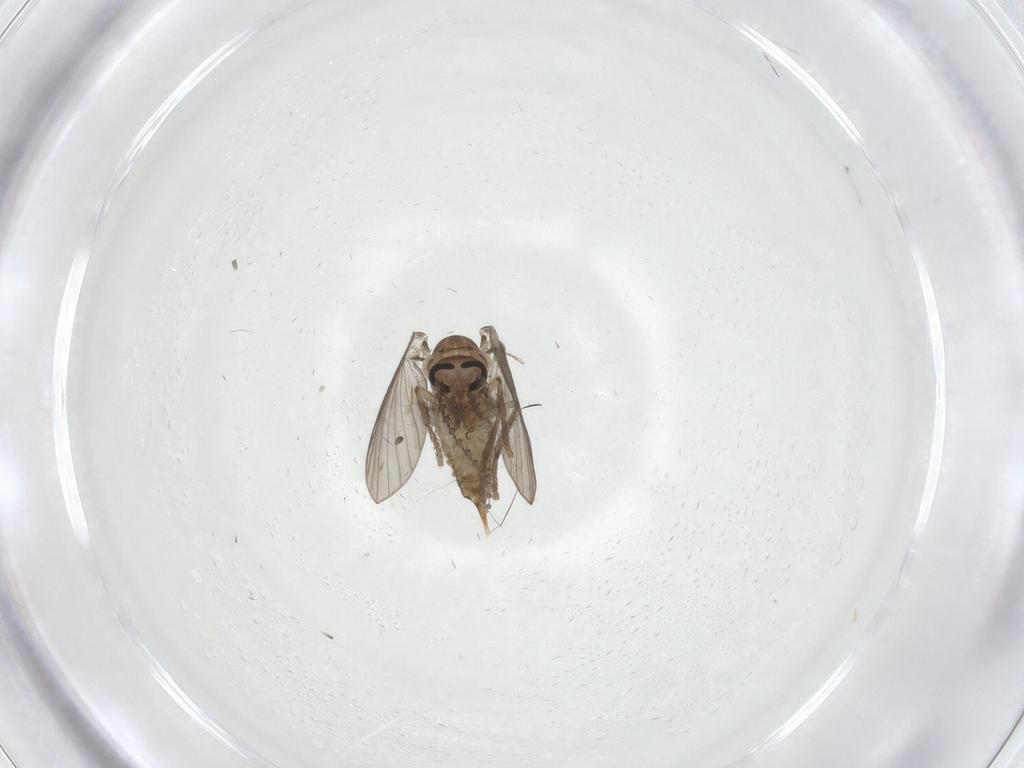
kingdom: Animalia
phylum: Arthropoda
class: Insecta
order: Diptera
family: Psychodidae
